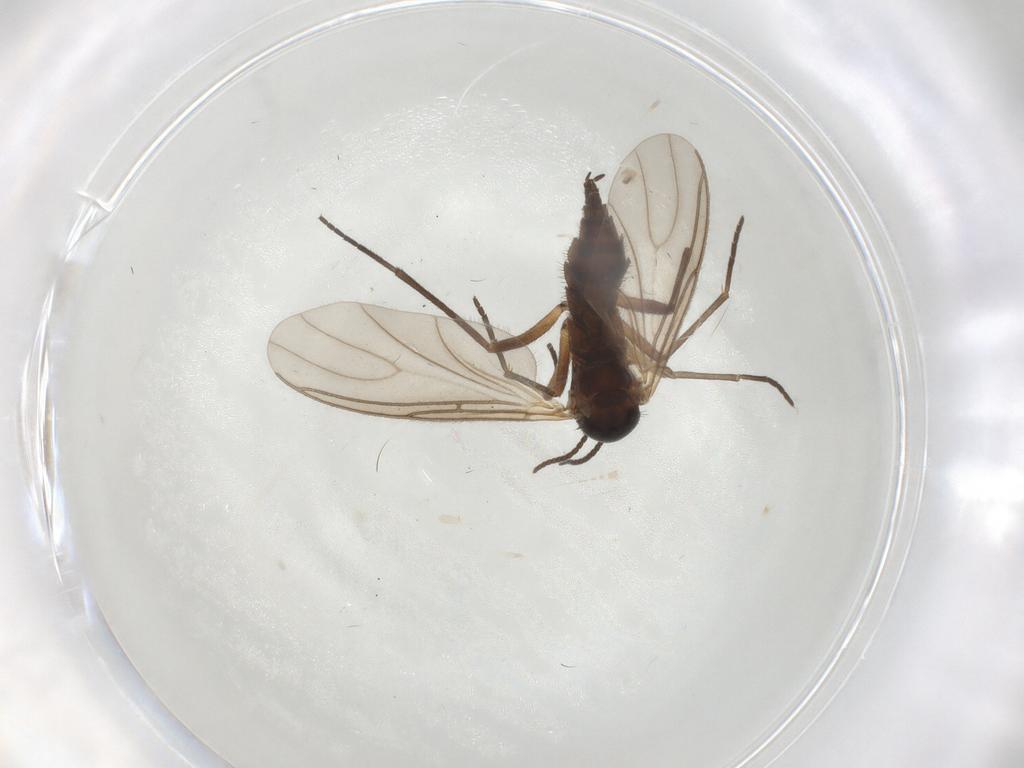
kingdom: Animalia
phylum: Arthropoda
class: Insecta
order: Diptera
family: Sciaridae
